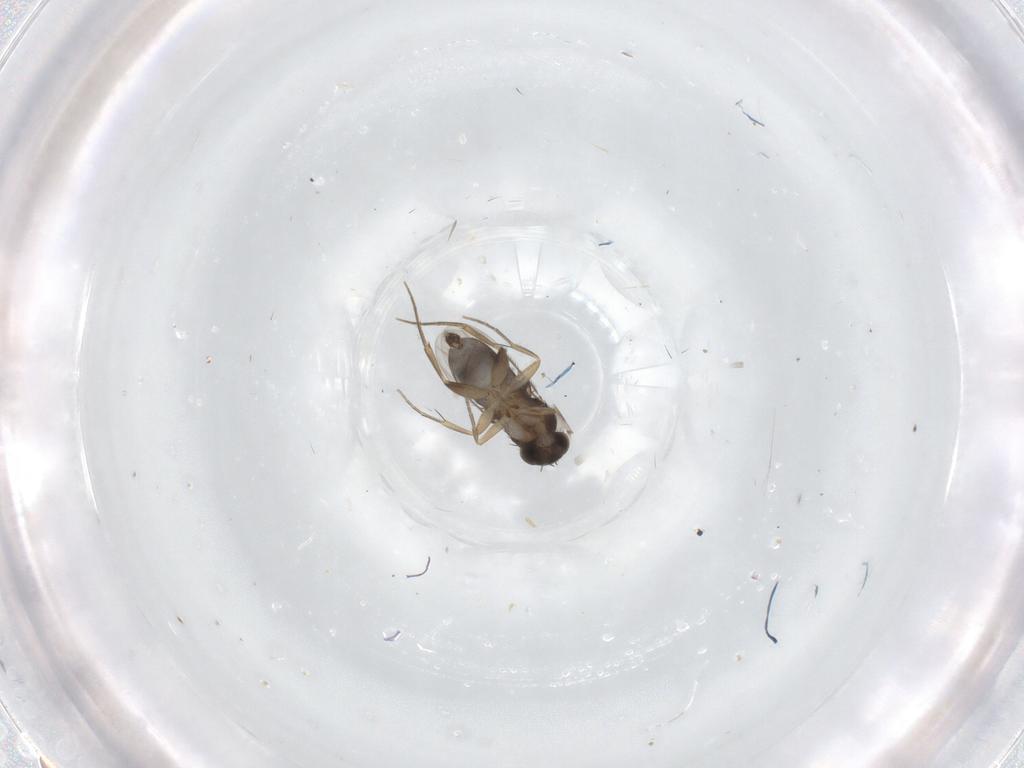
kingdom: Animalia
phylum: Arthropoda
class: Insecta
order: Diptera
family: Phoridae
